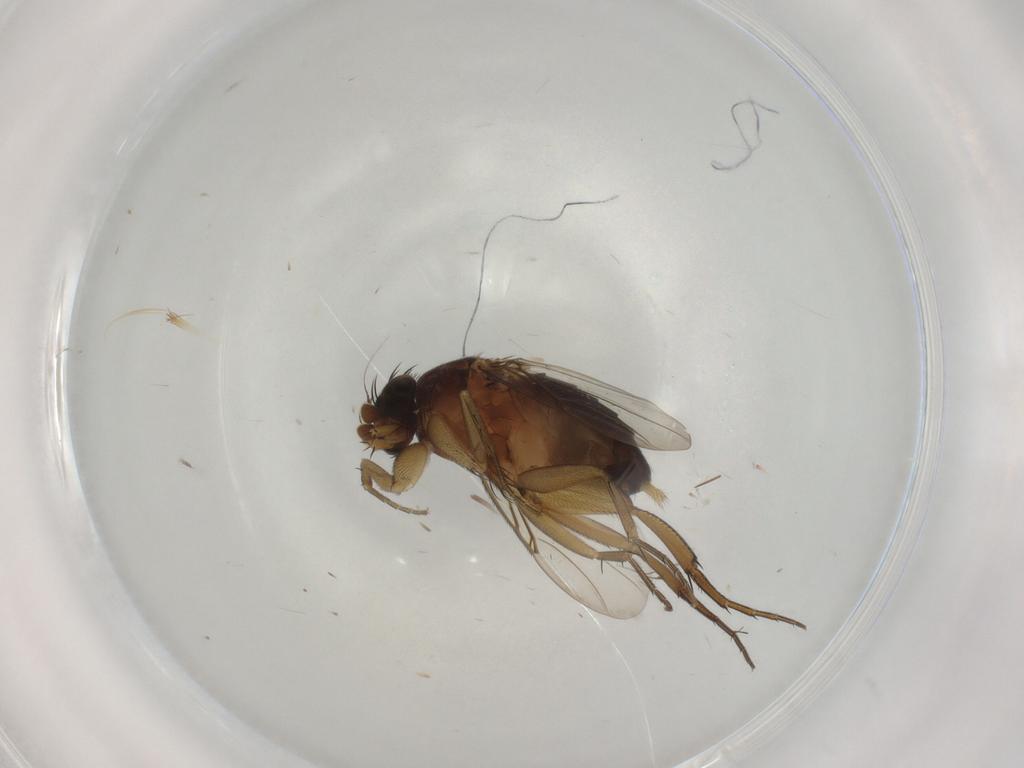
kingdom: Animalia
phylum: Arthropoda
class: Insecta
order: Diptera
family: Phoridae
